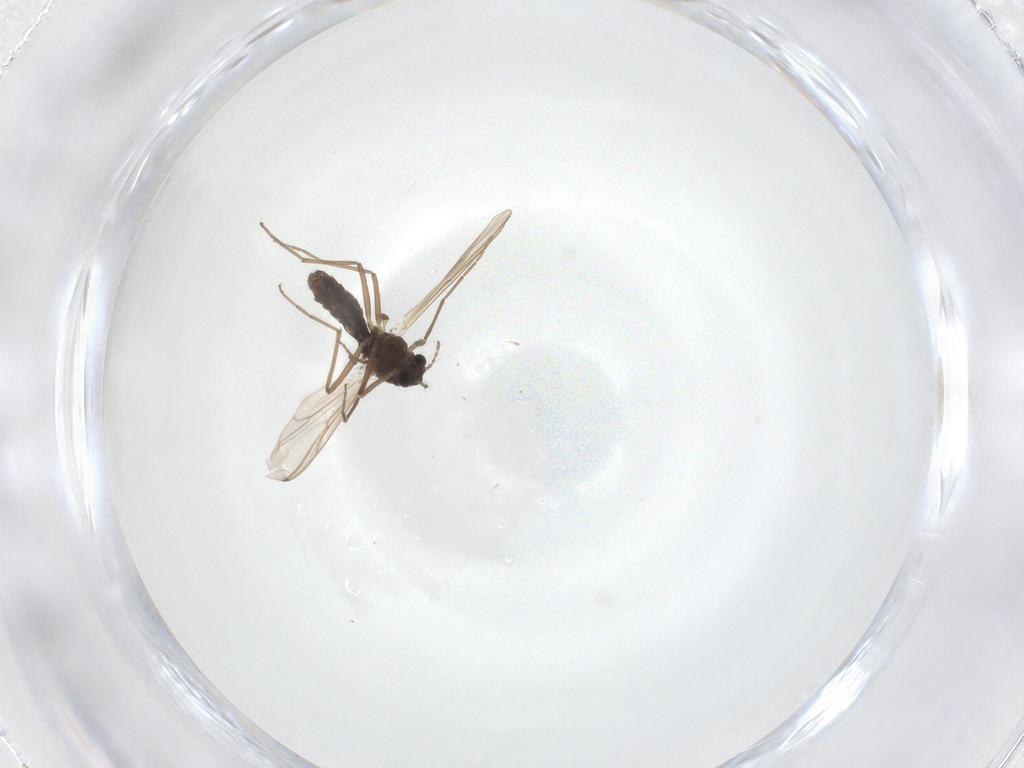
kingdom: Animalia
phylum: Arthropoda
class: Insecta
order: Diptera
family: Chironomidae
